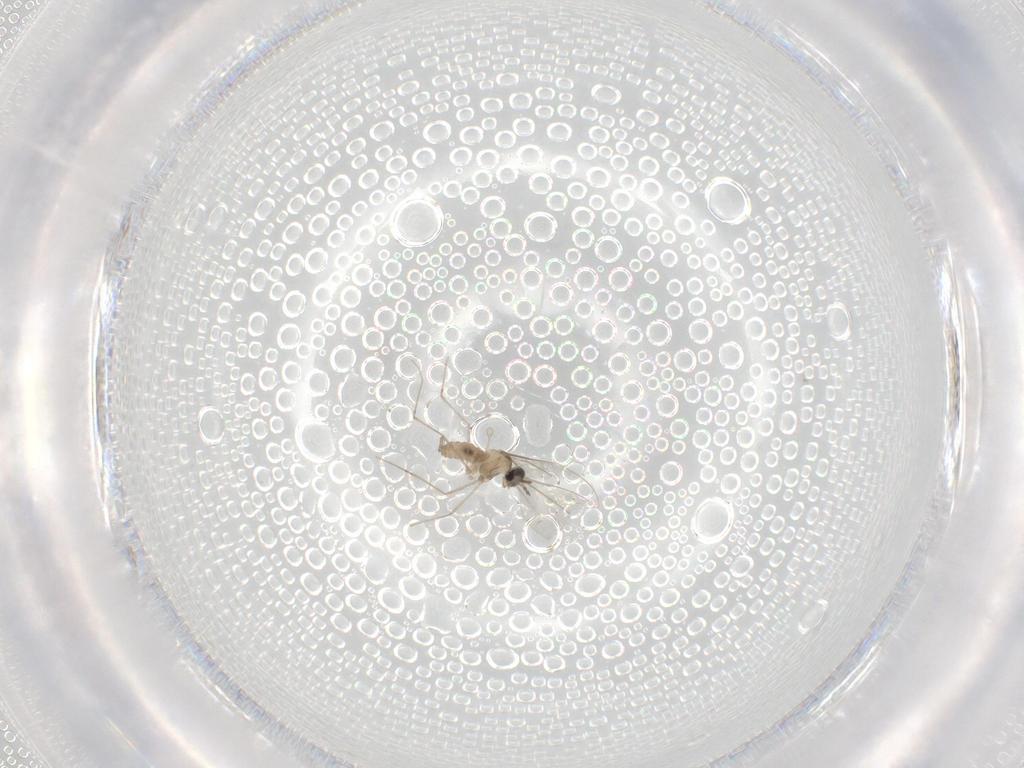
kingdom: Animalia
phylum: Arthropoda
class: Insecta
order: Diptera
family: Cecidomyiidae
